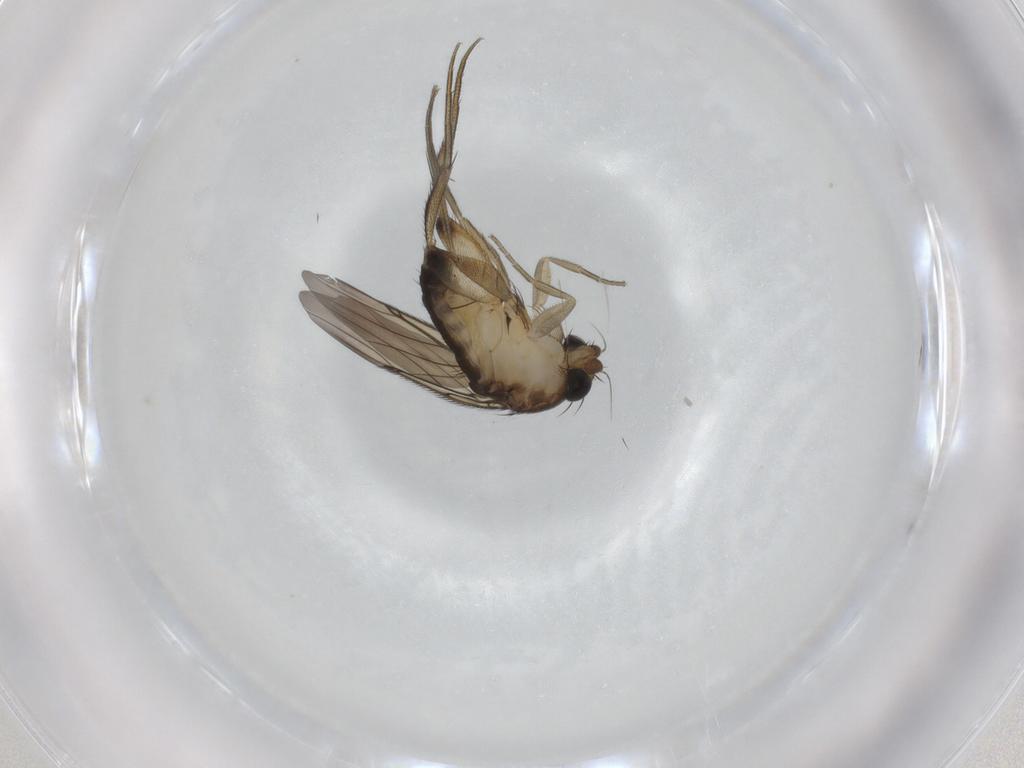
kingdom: Animalia
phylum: Arthropoda
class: Insecta
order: Diptera
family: Phoridae
